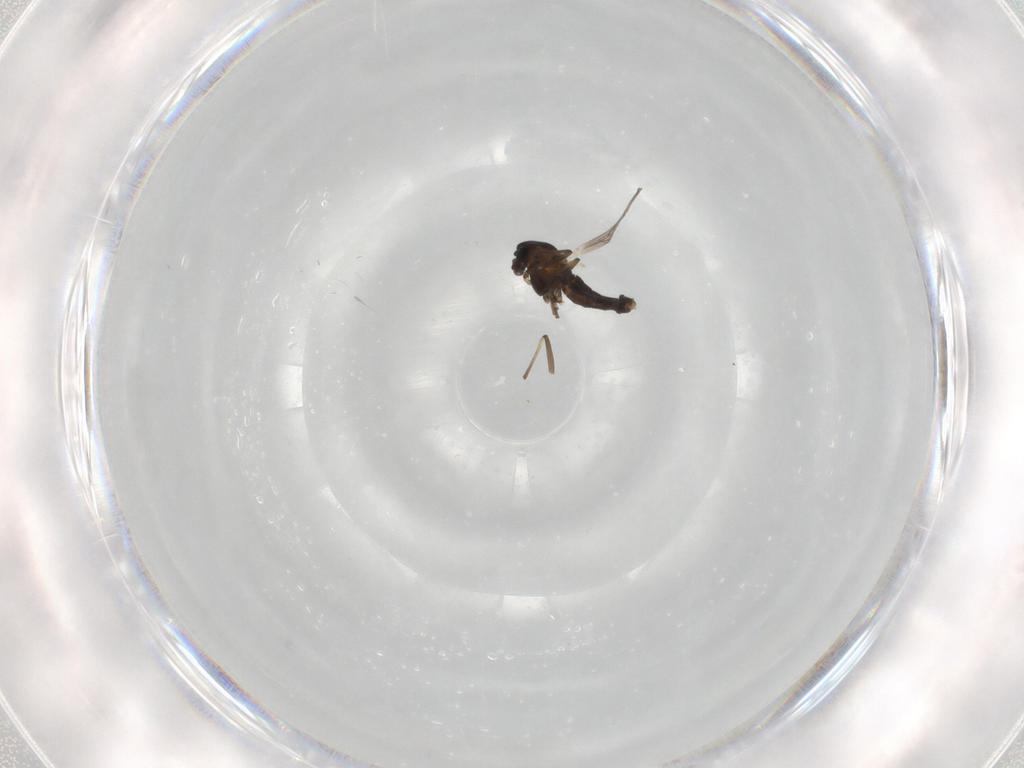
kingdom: Animalia
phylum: Arthropoda
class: Insecta
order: Diptera
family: Chironomidae
